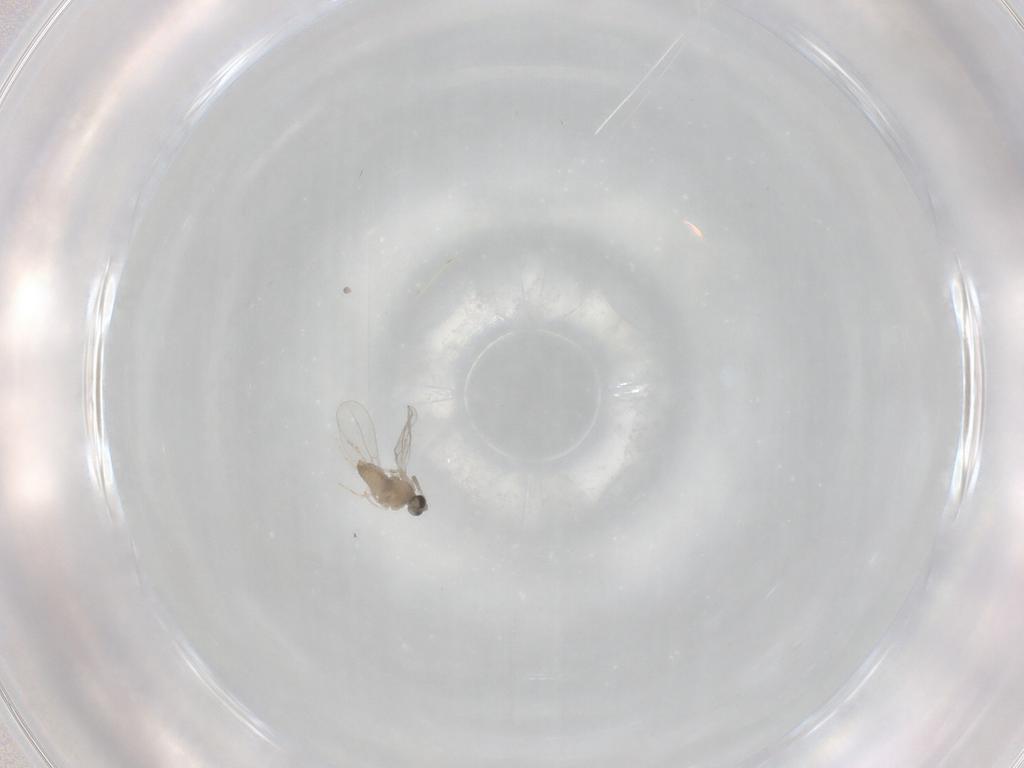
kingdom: Animalia
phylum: Arthropoda
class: Insecta
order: Diptera
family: Cecidomyiidae
